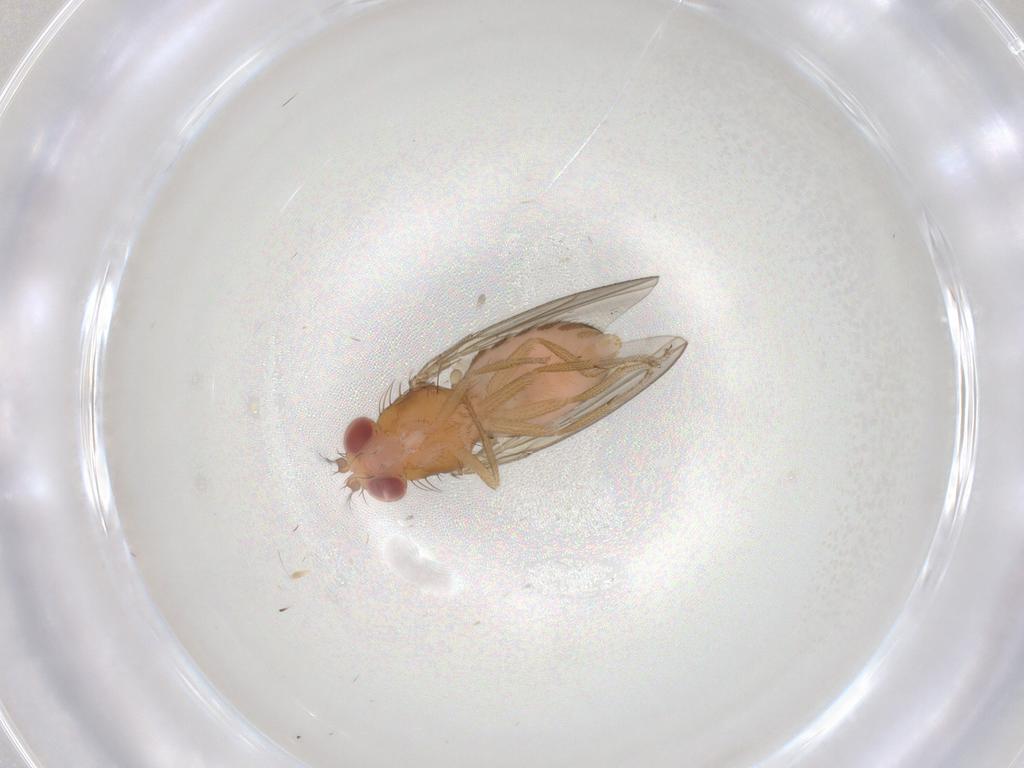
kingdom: Animalia
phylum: Arthropoda
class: Insecta
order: Diptera
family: Drosophilidae
